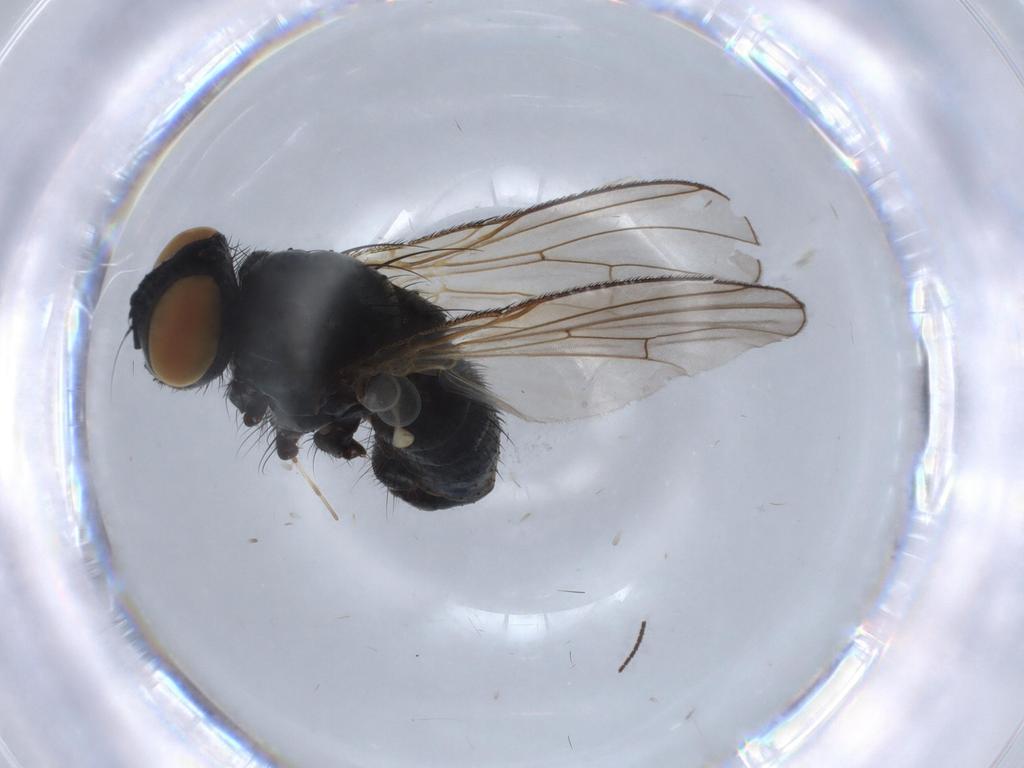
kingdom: Animalia
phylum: Arthropoda
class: Insecta
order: Diptera
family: Muscidae
